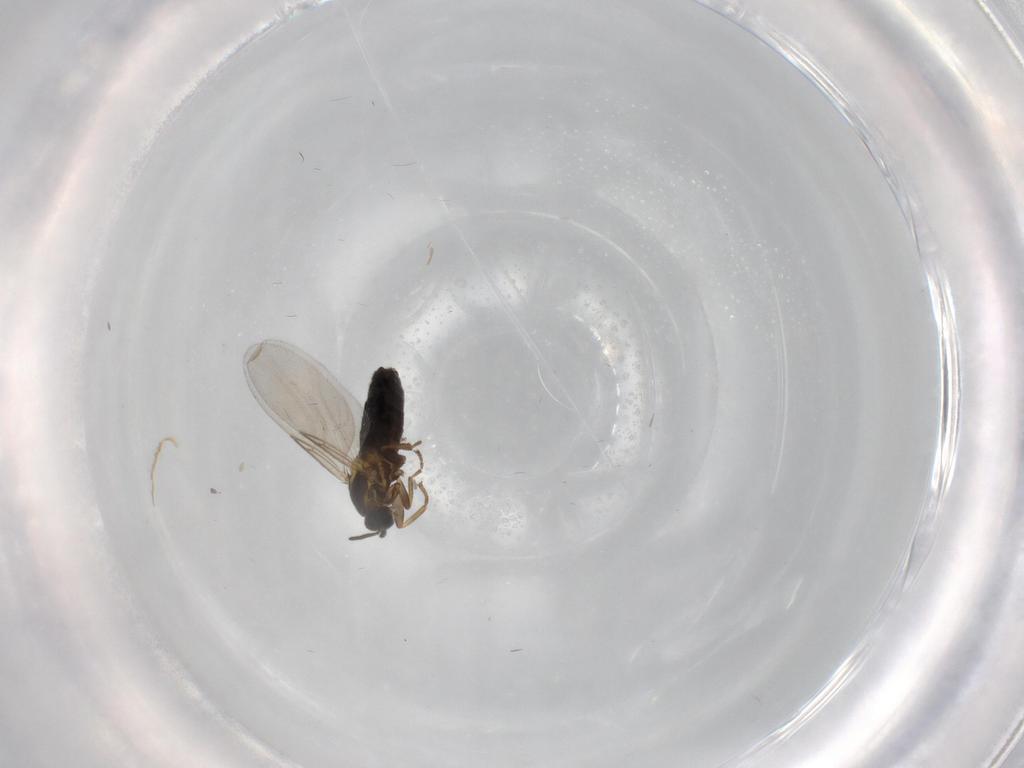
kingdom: Animalia
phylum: Arthropoda
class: Insecta
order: Diptera
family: Scatopsidae
